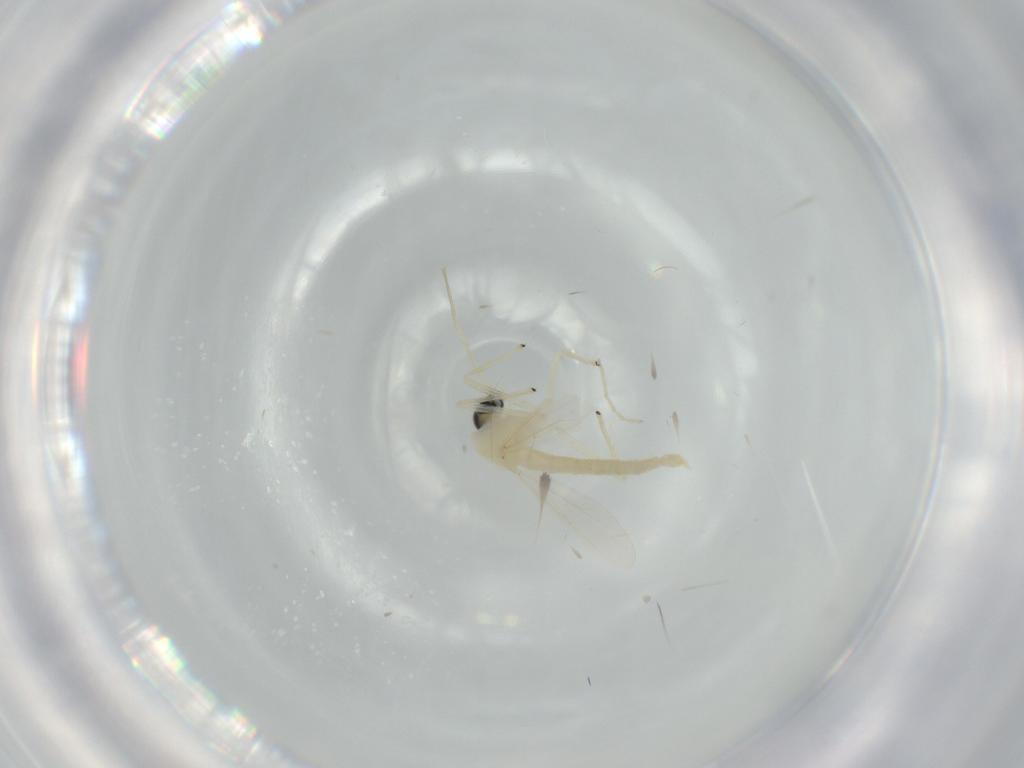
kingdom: Animalia
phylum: Arthropoda
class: Insecta
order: Diptera
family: Chironomidae
